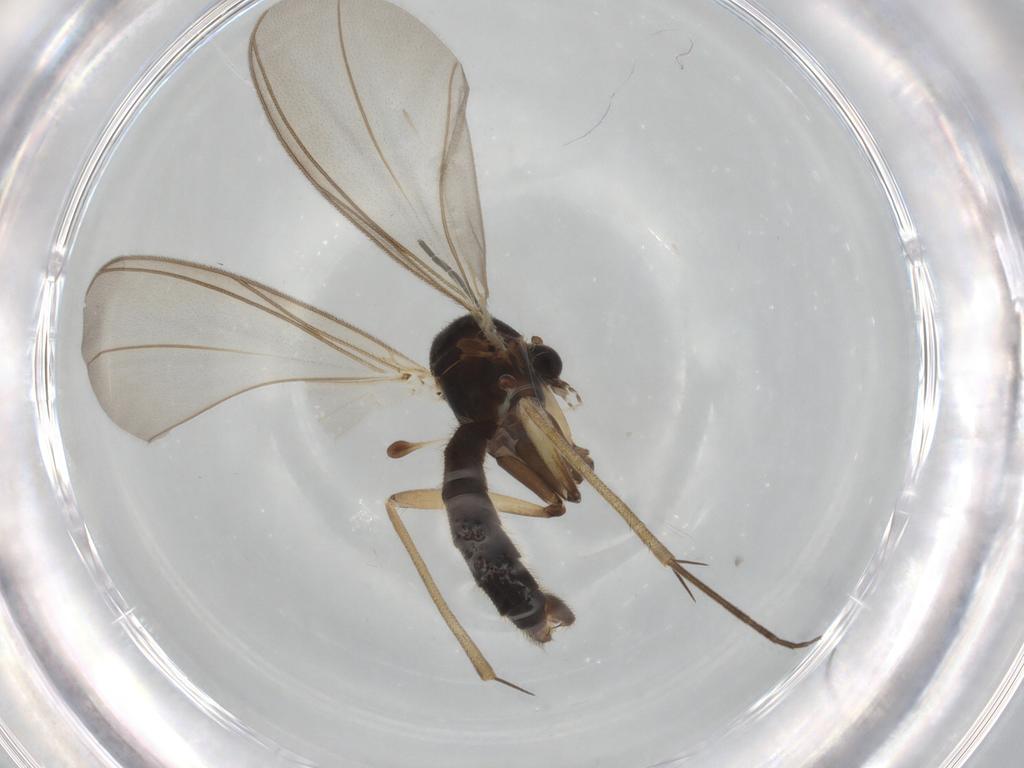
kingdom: Animalia
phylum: Arthropoda
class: Insecta
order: Diptera
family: Mycetophilidae
